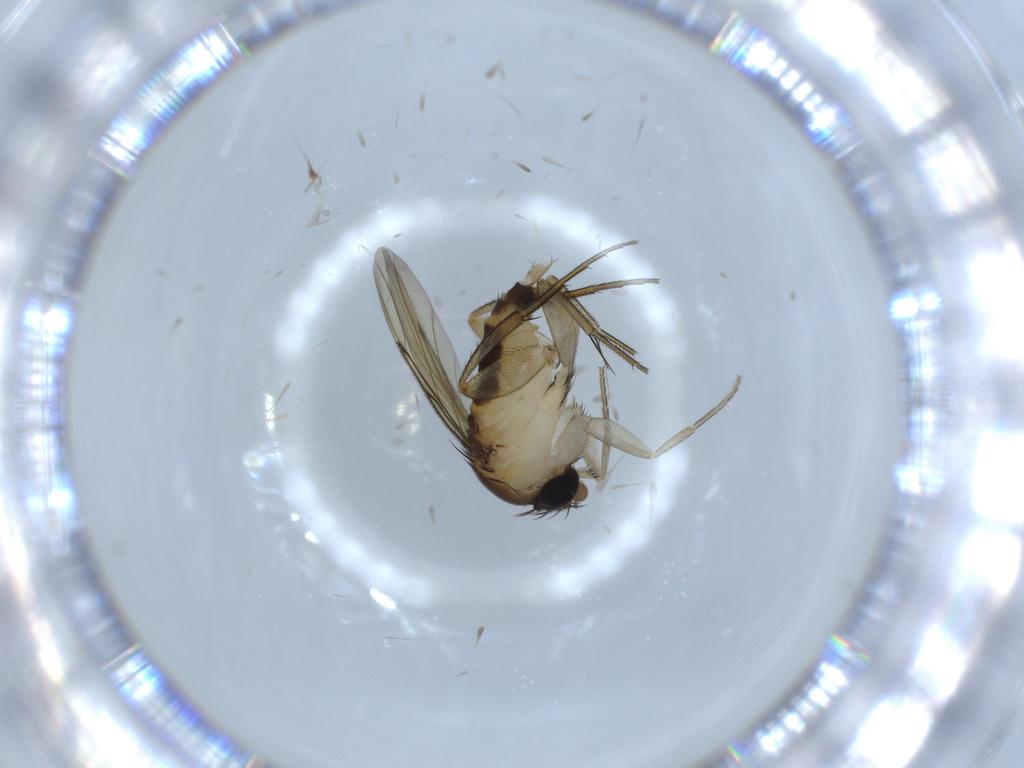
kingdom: Animalia
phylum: Arthropoda
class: Insecta
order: Diptera
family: Phoridae
